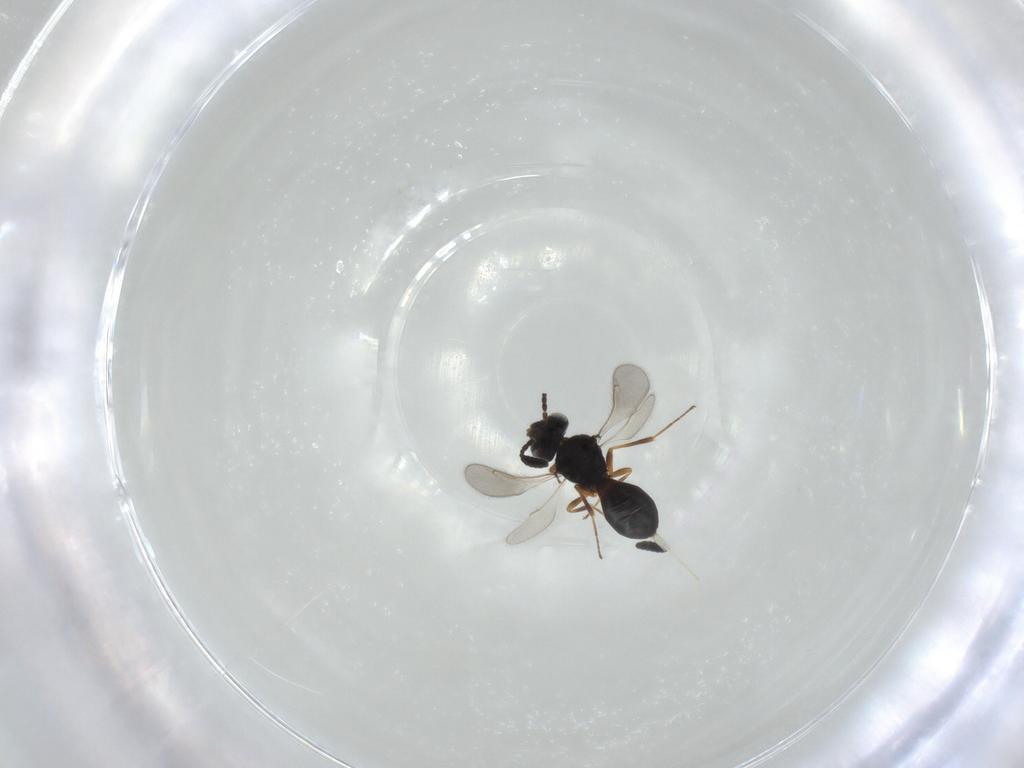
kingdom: Animalia
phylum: Arthropoda
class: Insecta
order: Hymenoptera
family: Scelionidae
